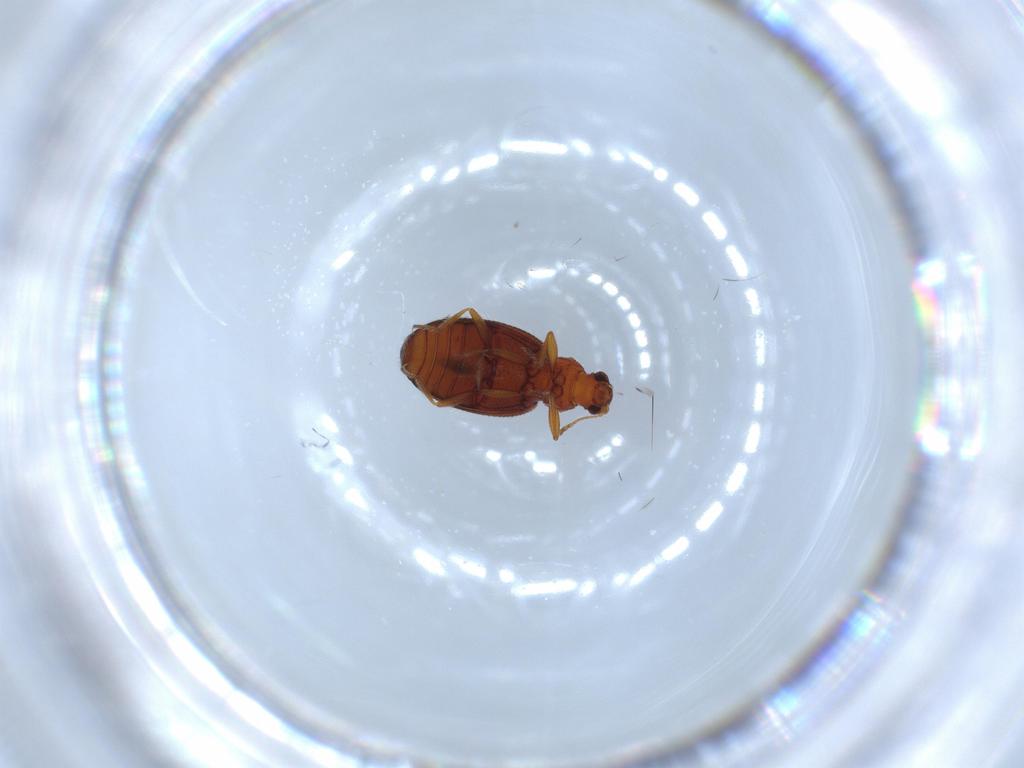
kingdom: Animalia
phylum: Arthropoda
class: Insecta
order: Coleoptera
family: Latridiidae
